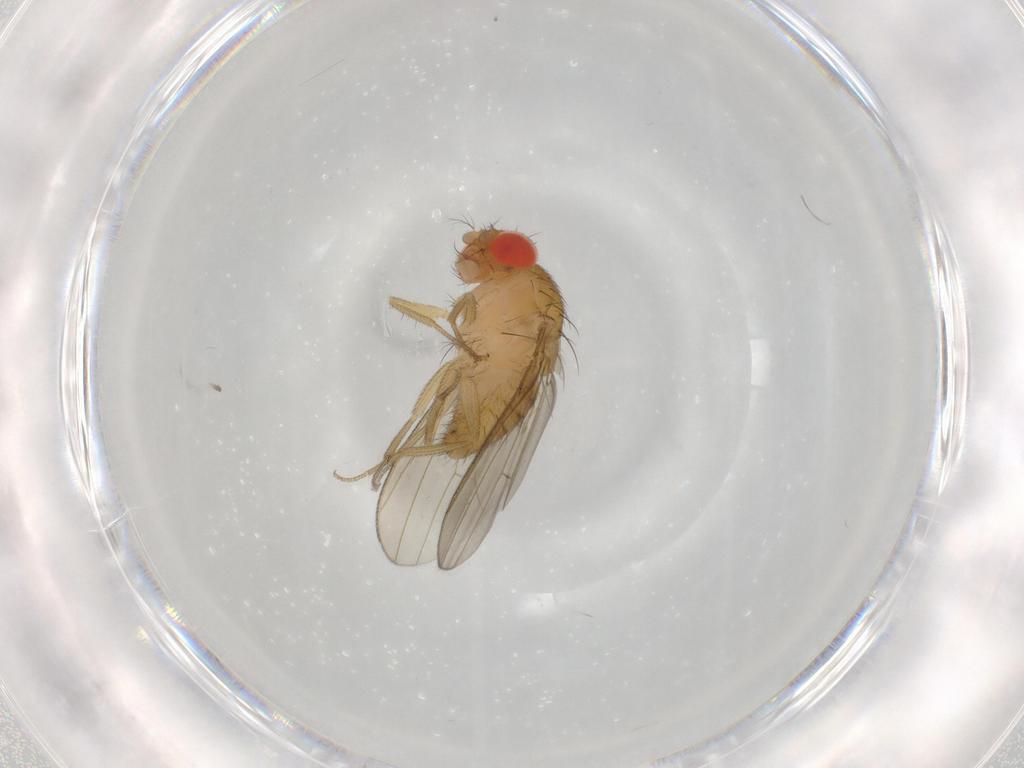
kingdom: Animalia
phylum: Arthropoda
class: Insecta
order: Diptera
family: Drosophilidae
